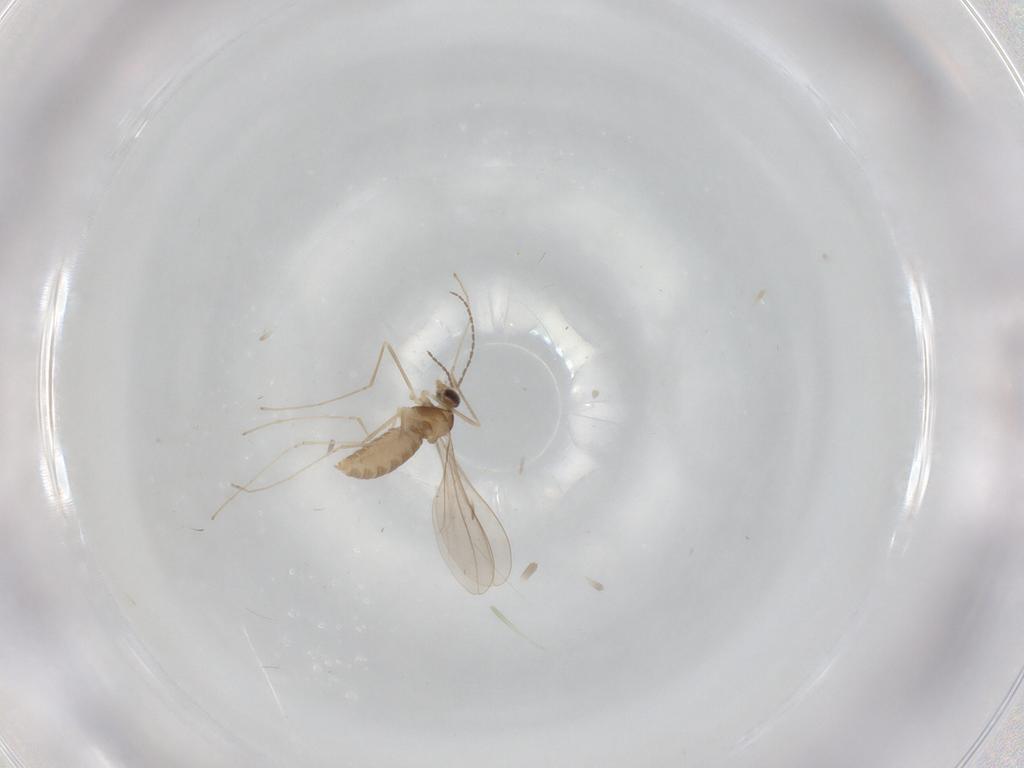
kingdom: Animalia
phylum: Arthropoda
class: Insecta
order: Diptera
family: Cecidomyiidae
